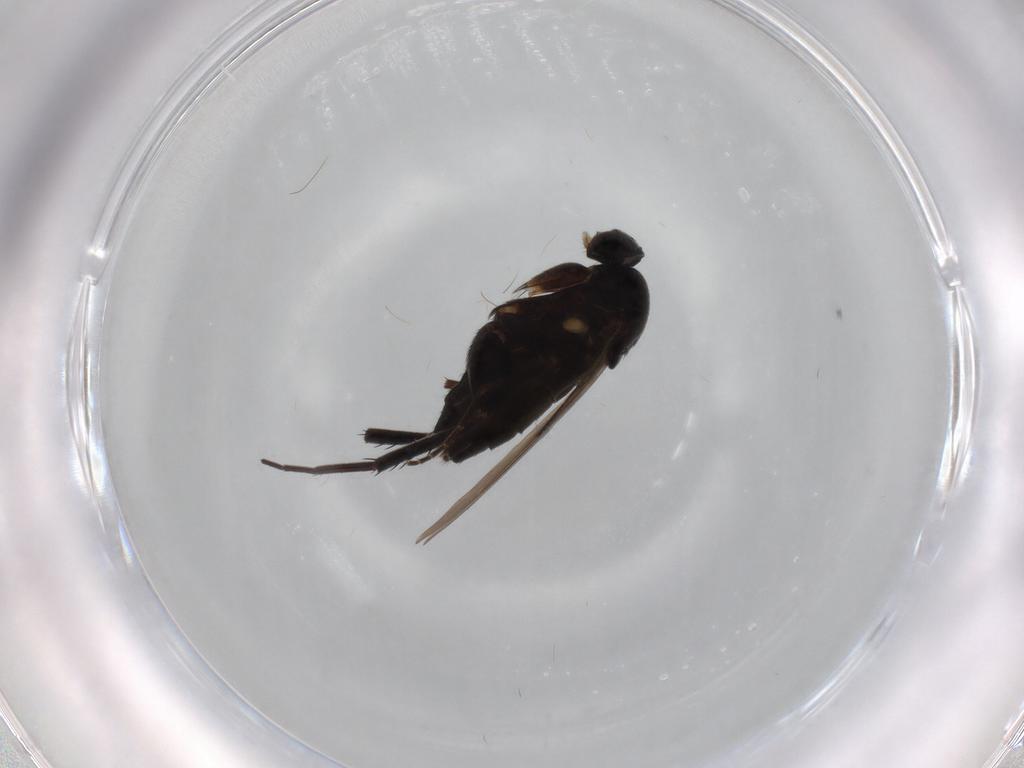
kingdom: Animalia
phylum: Arthropoda
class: Insecta
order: Diptera
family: Phoridae
